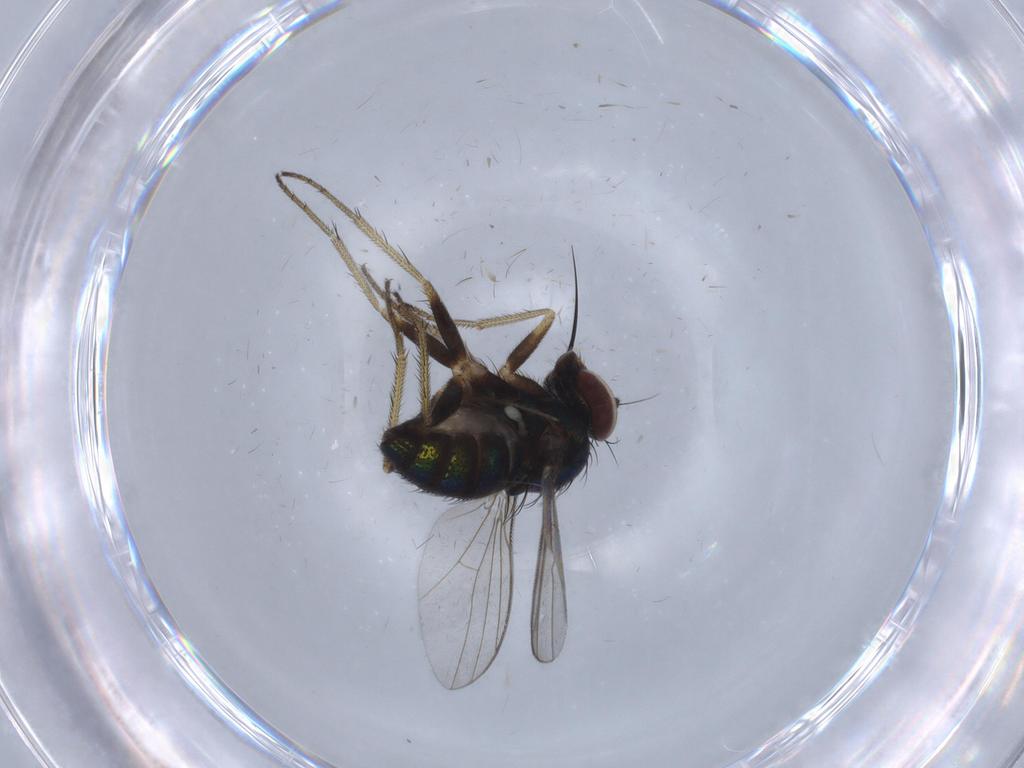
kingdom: Animalia
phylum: Arthropoda
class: Insecta
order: Diptera
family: Dolichopodidae
